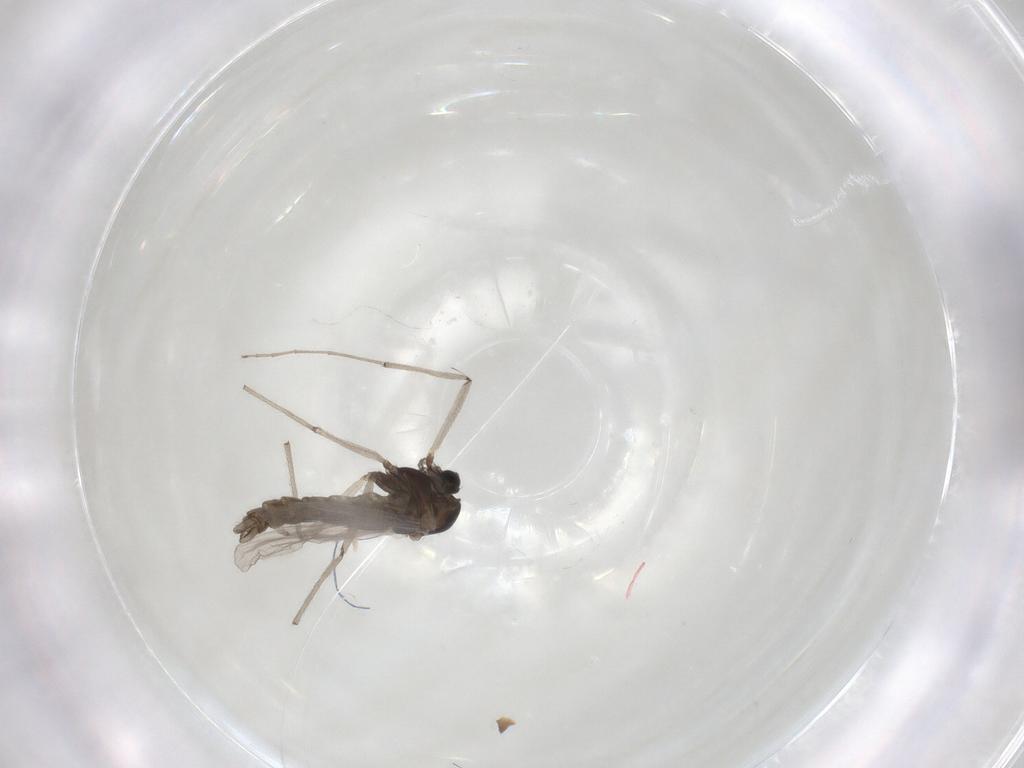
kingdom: Animalia
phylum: Arthropoda
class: Insecta
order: Diptera
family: Chironomidae
